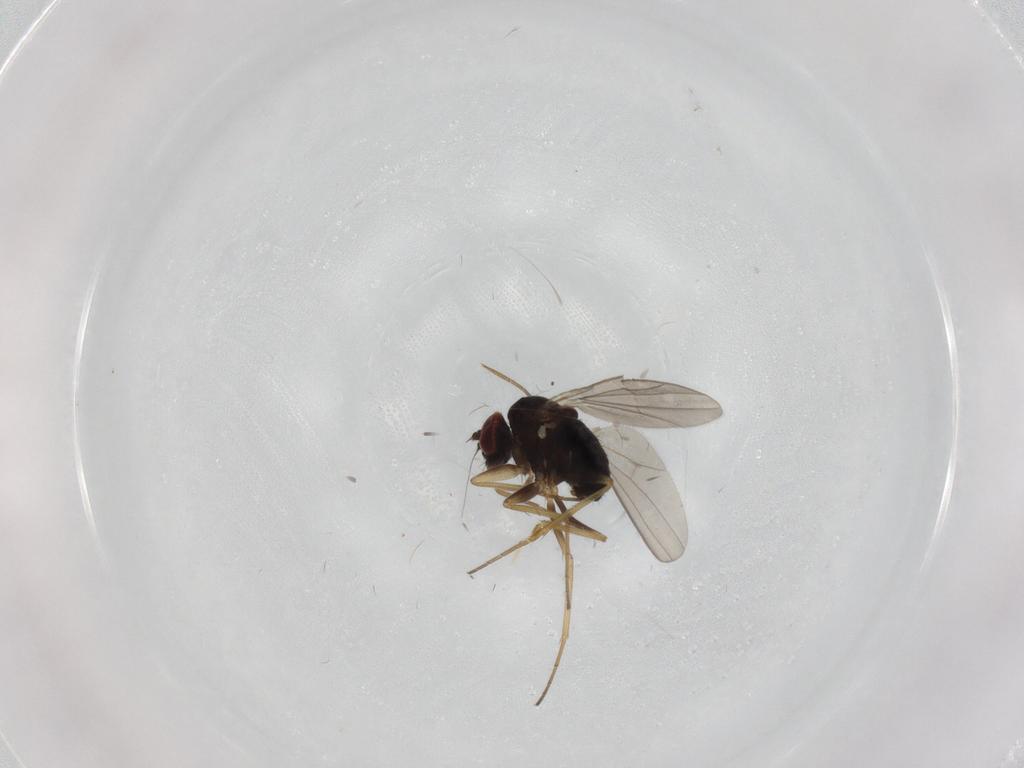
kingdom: Animalia
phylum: Arthropoda
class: Insecta
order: Diptera
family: Dolichopodidae
